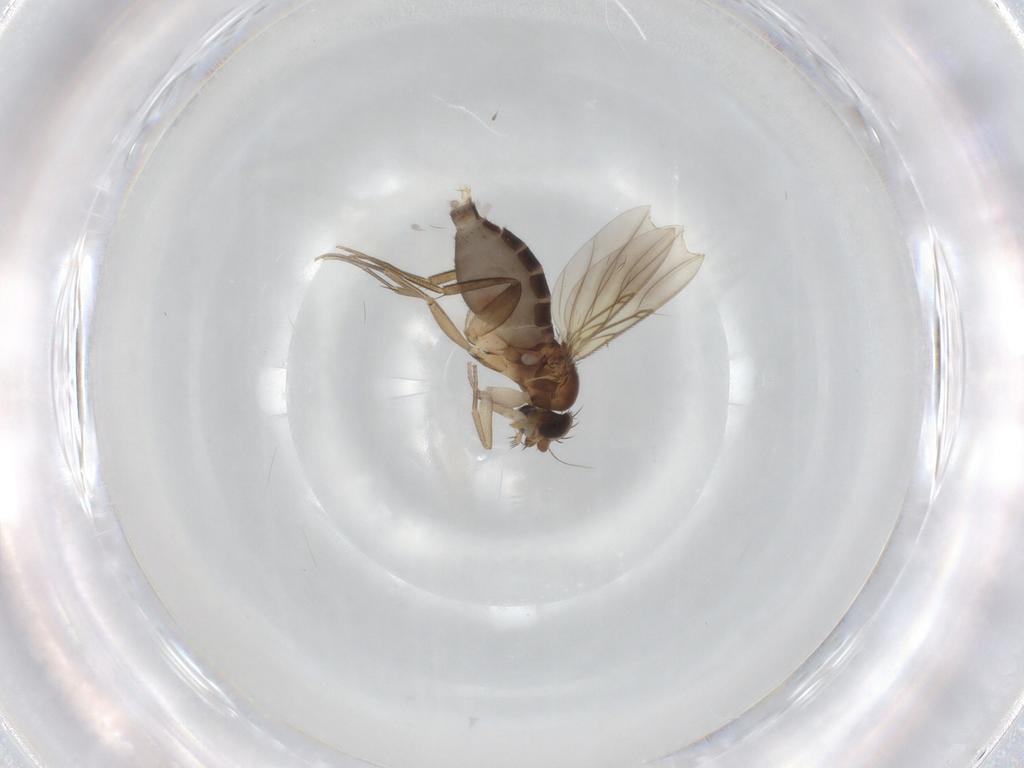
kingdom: Animalia
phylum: Arthropoda
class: Insecta
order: Diptera
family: Phoridae
